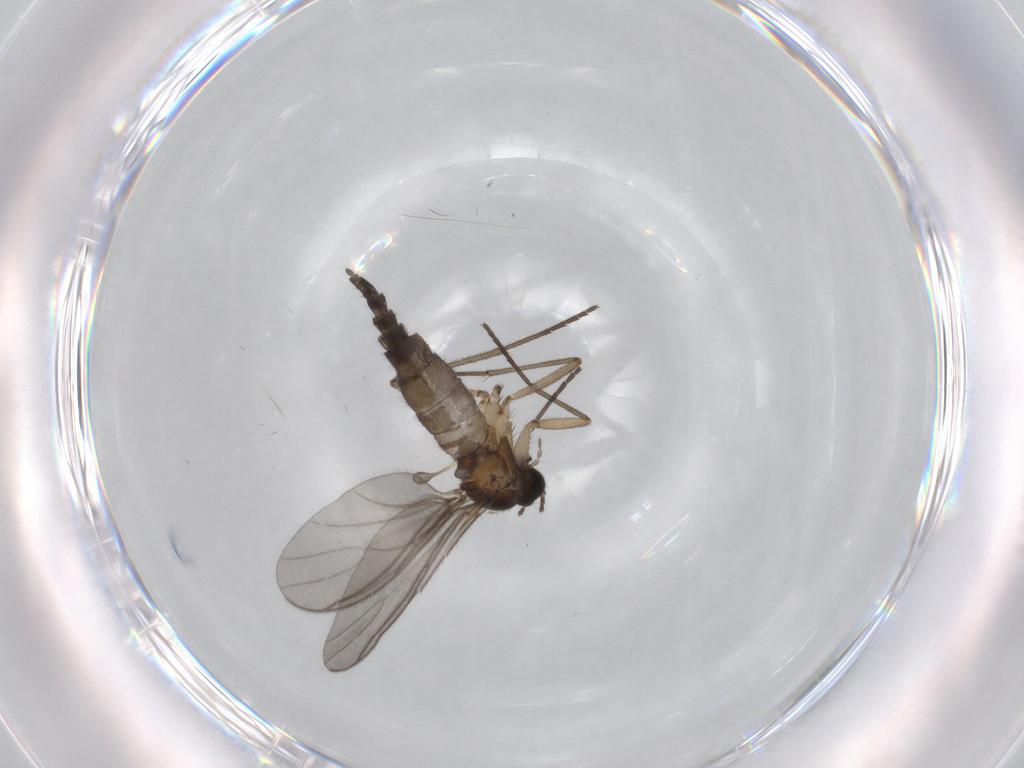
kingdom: Animalia
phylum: Arthropoda
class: Insecta
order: Diptera
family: Sciaridae
